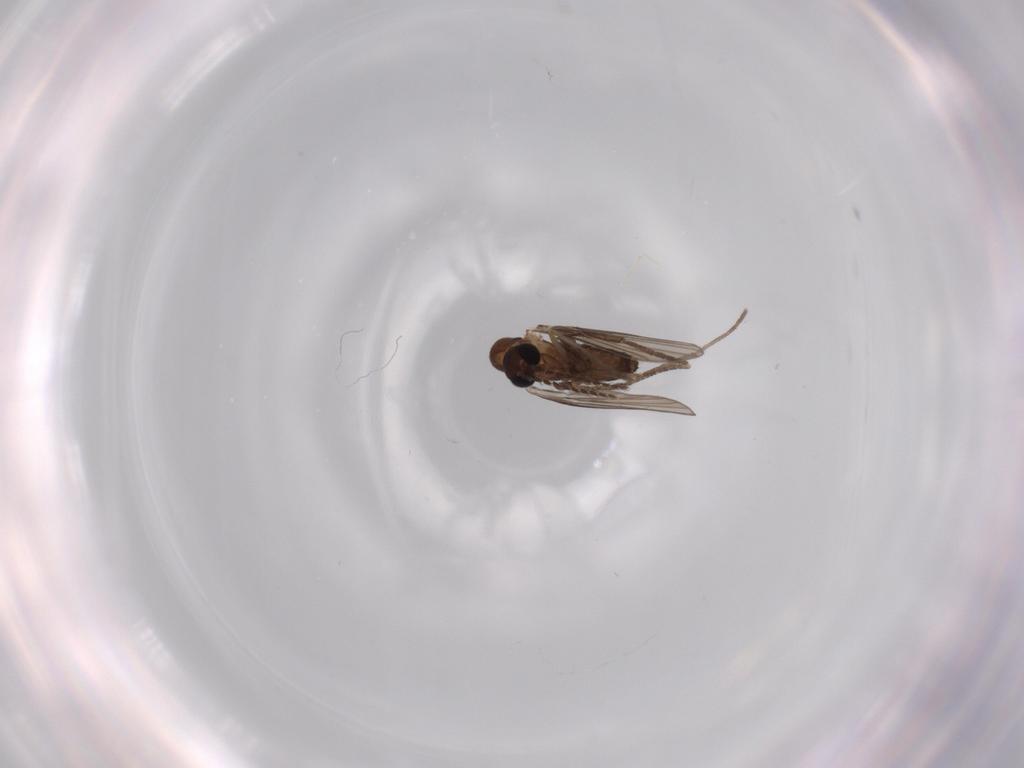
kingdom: Animalia
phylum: Arthropoda
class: Insecta
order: Diptera
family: Psychodidae
